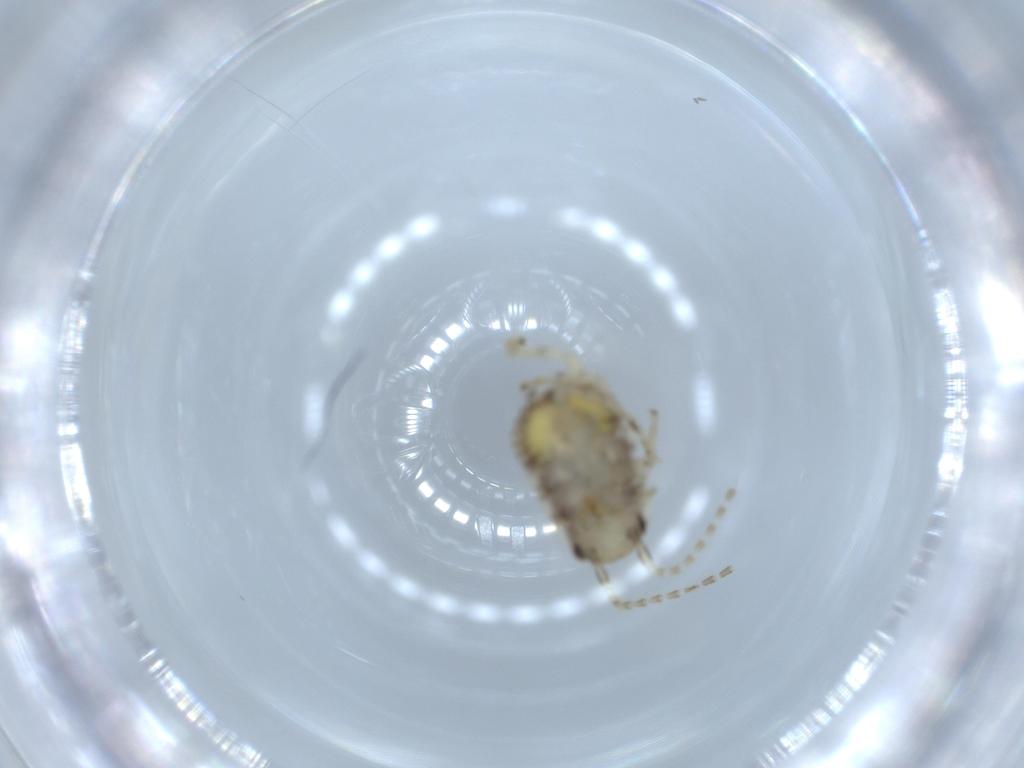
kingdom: Animalia
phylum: Arthropoda
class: Insecta
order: Blattodea
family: Ectobiidae
